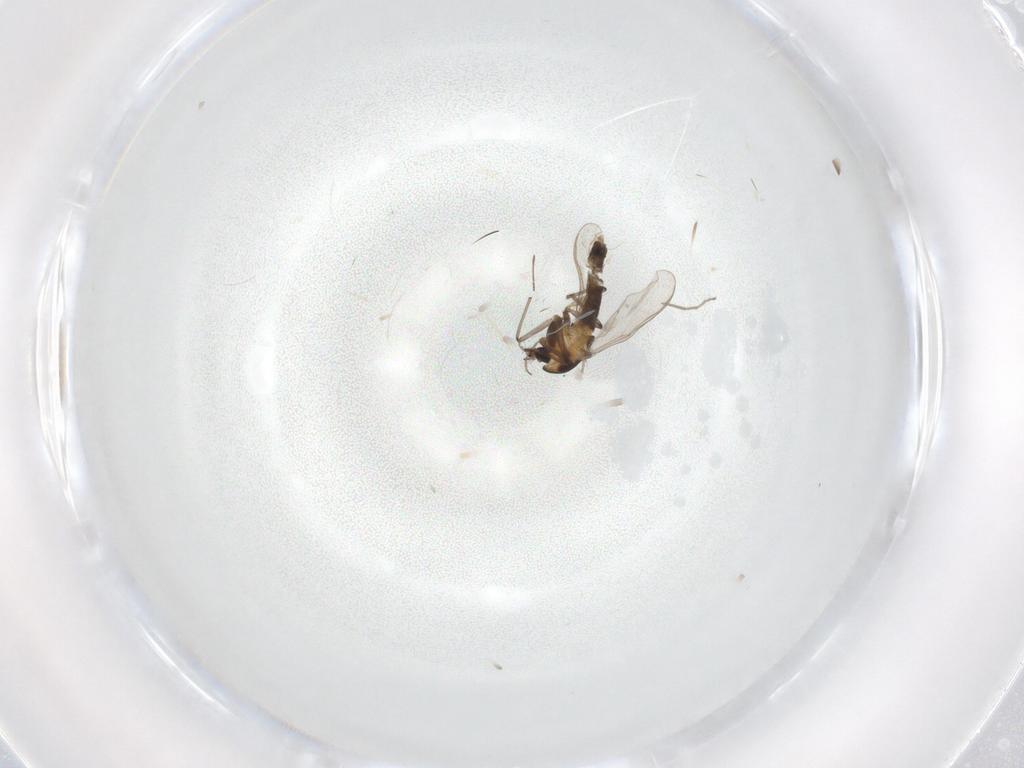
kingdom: Animalia
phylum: Arthropoda
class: Insecta
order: Diptera
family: Chironomidae
